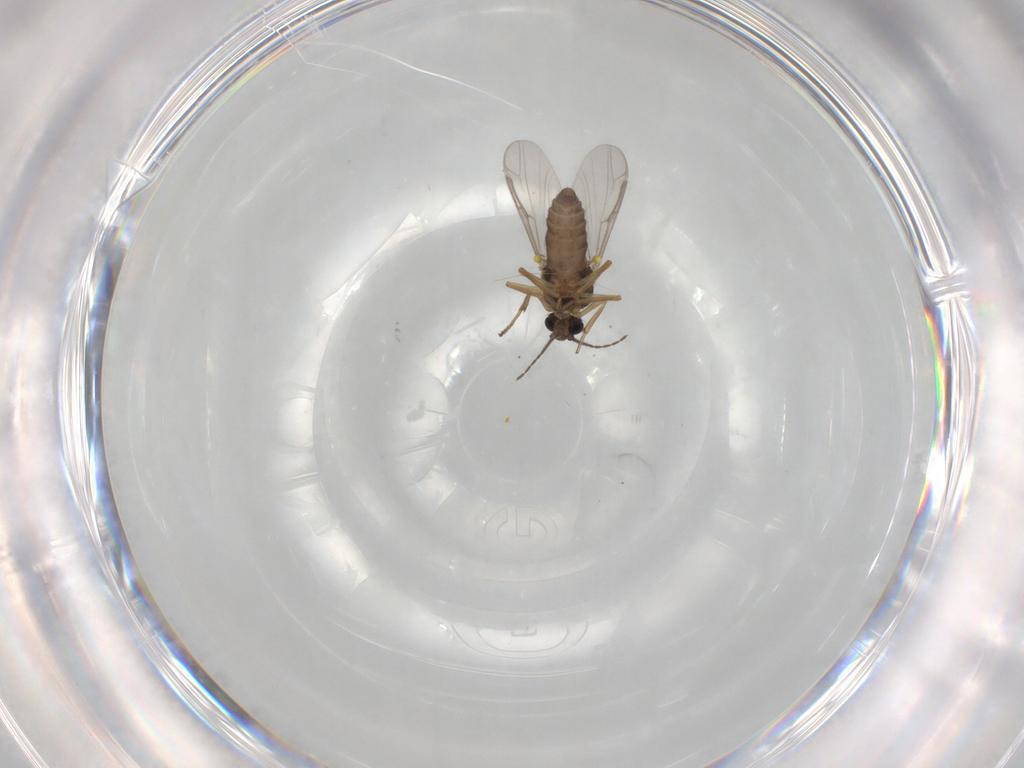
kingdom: Animalia
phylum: Arthropoda
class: Insecta
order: Diptera
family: Ceratopogonidae
